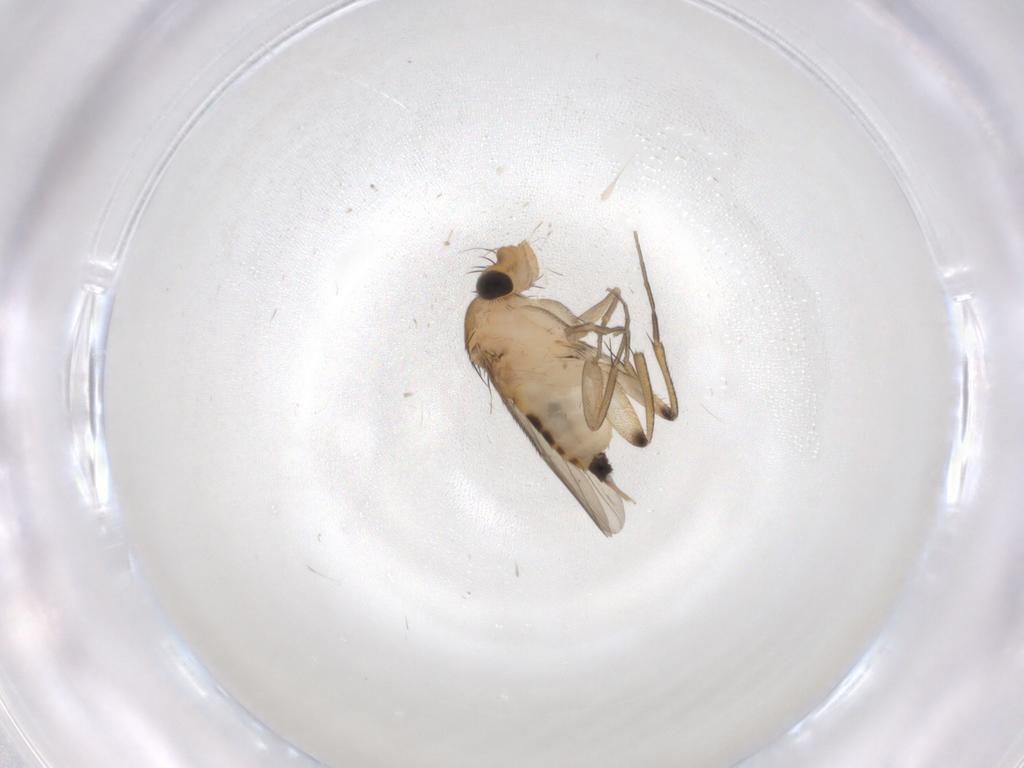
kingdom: Animalia
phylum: Arthropoda
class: Insecta
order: Diptera
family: Phoridae
